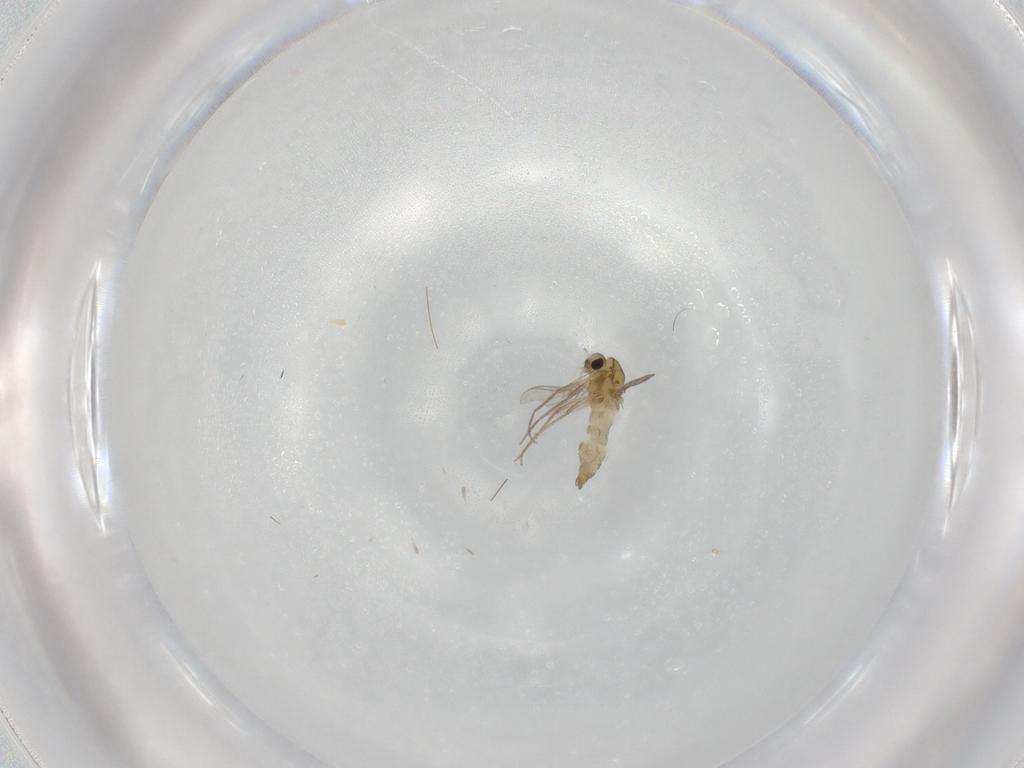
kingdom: Animalia
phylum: Arthropoda
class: Insecta
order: Diptera
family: Chironomidae
